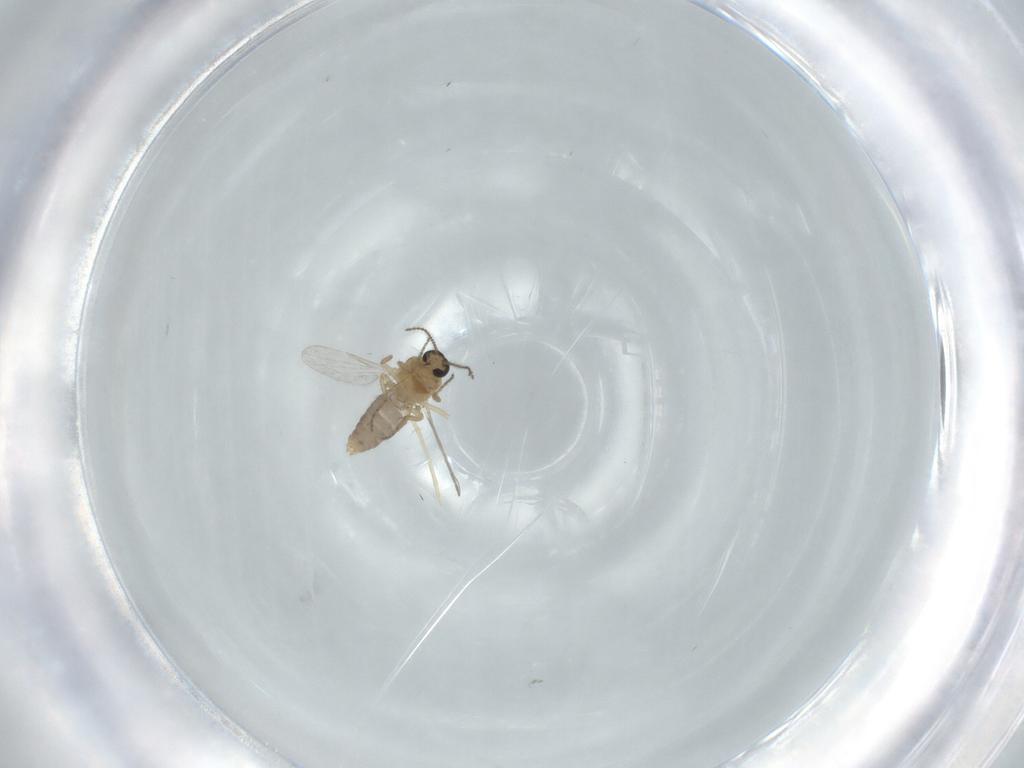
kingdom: Animalia
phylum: Arthropoda
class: Insecta
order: Diptera
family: Ceratopogonidae
